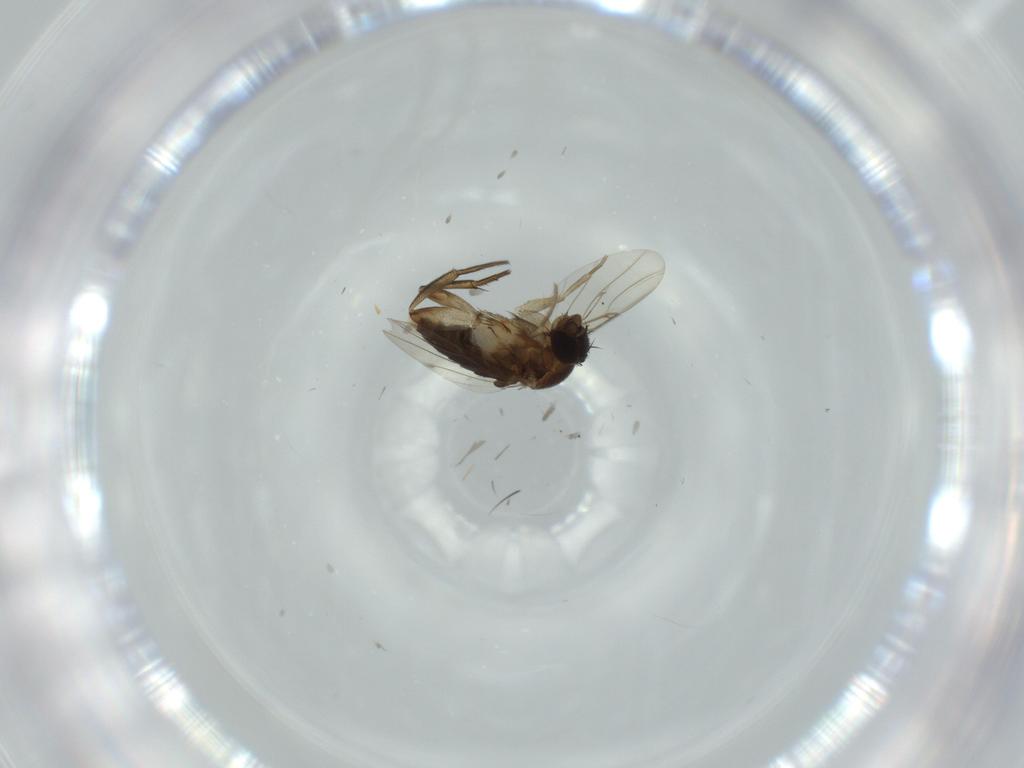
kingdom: Animalia
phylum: Arthropoda
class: Insecta
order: Diptera
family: Phoridae
